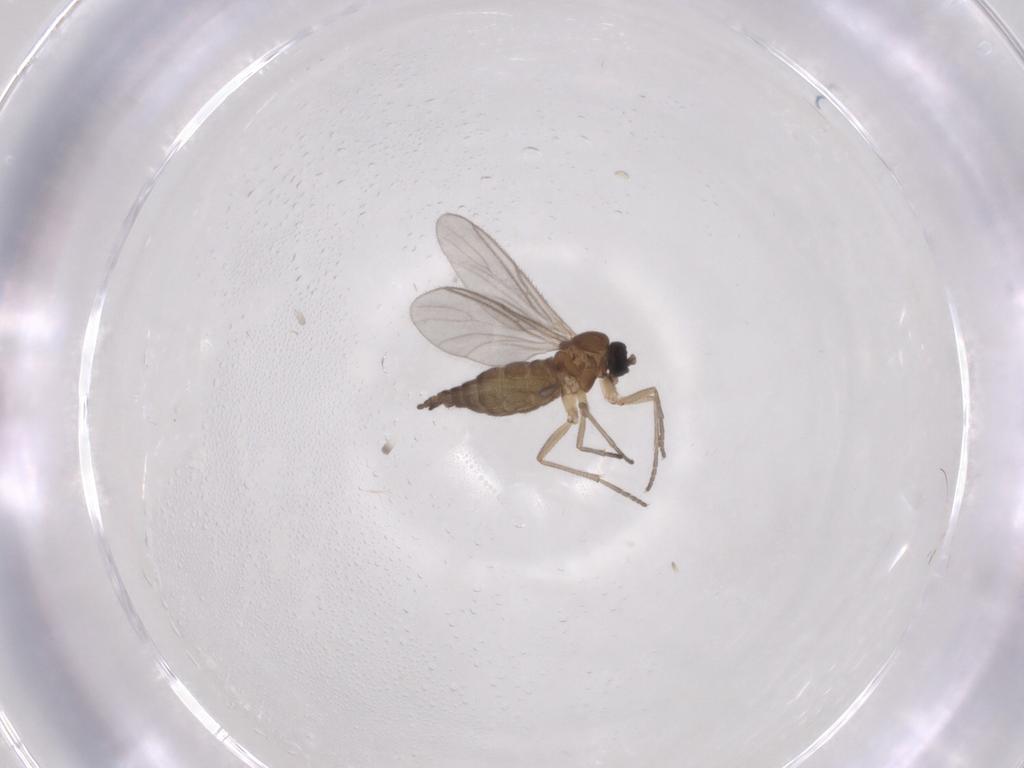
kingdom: Animalia
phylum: Arthropoda
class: Insecta
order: Diptera
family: Sciaridae
